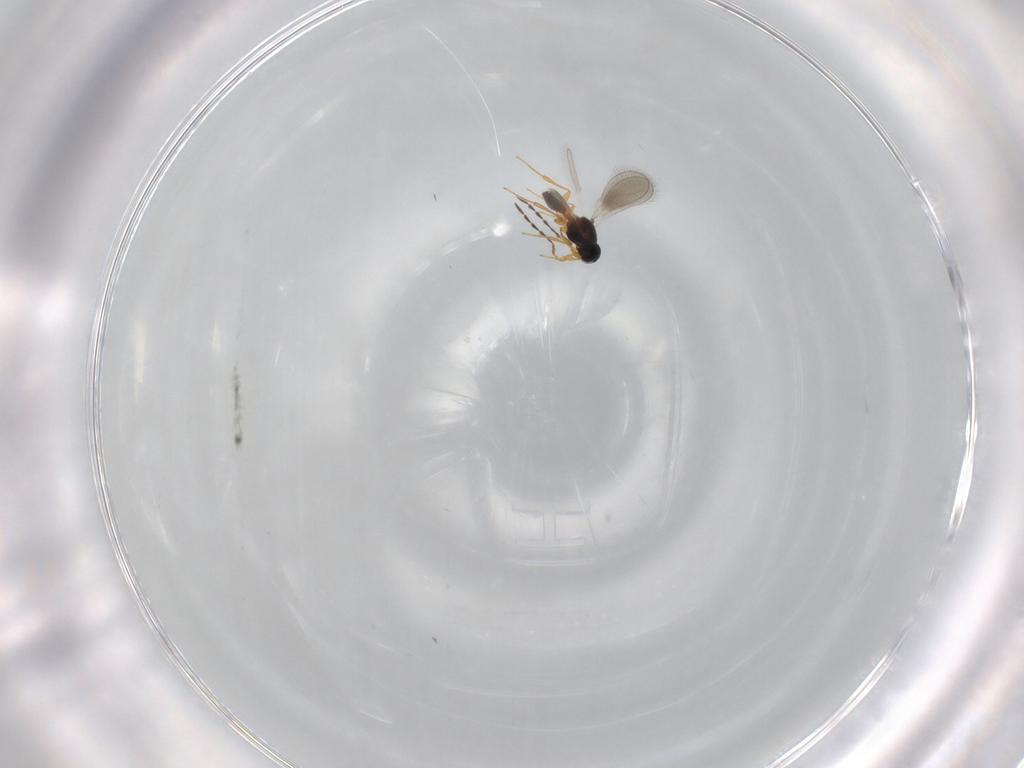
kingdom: Animalia
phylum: Arthropoda
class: Insecta
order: Hymenoptera
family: Platygastridae
